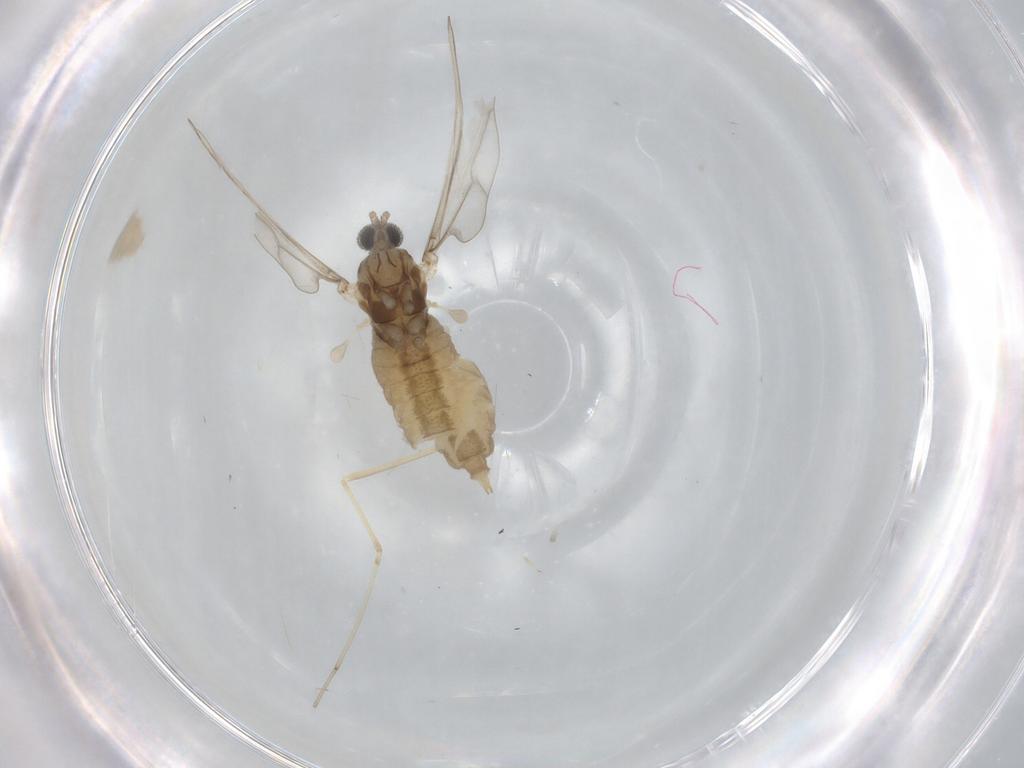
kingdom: Animalia
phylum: Arthropoda
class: Insecta
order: Diptera
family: Cecidomyiidae
